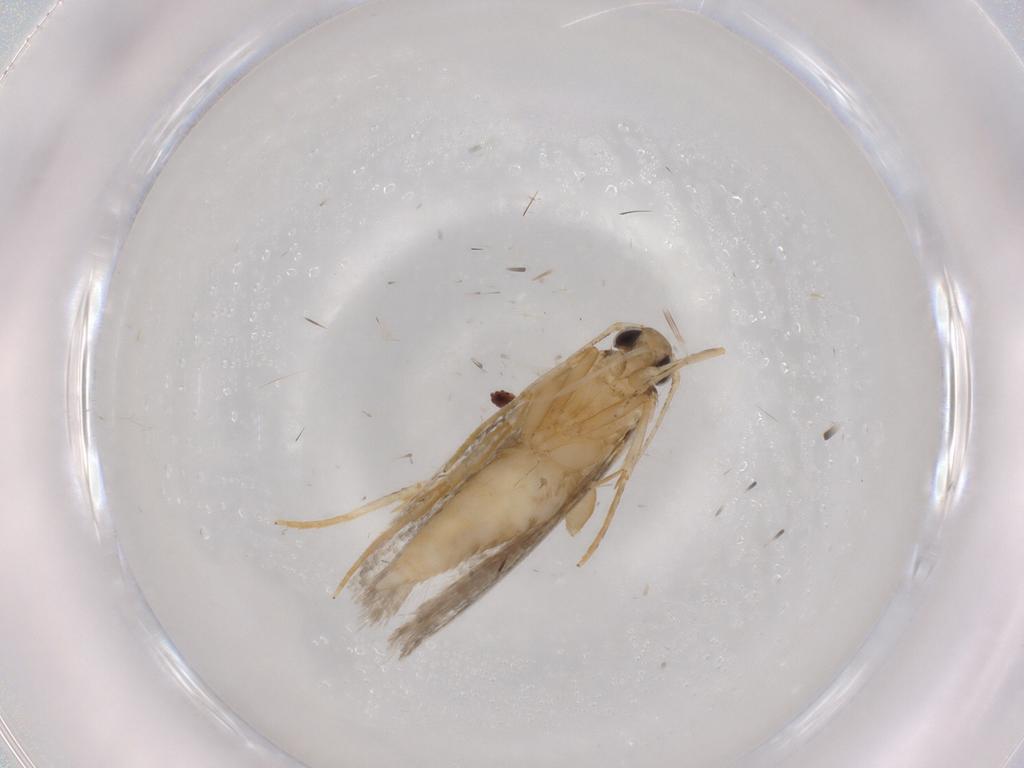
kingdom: Animalia
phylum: Arthropoda
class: Insecta
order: Lepidoptera
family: Autostichidae
